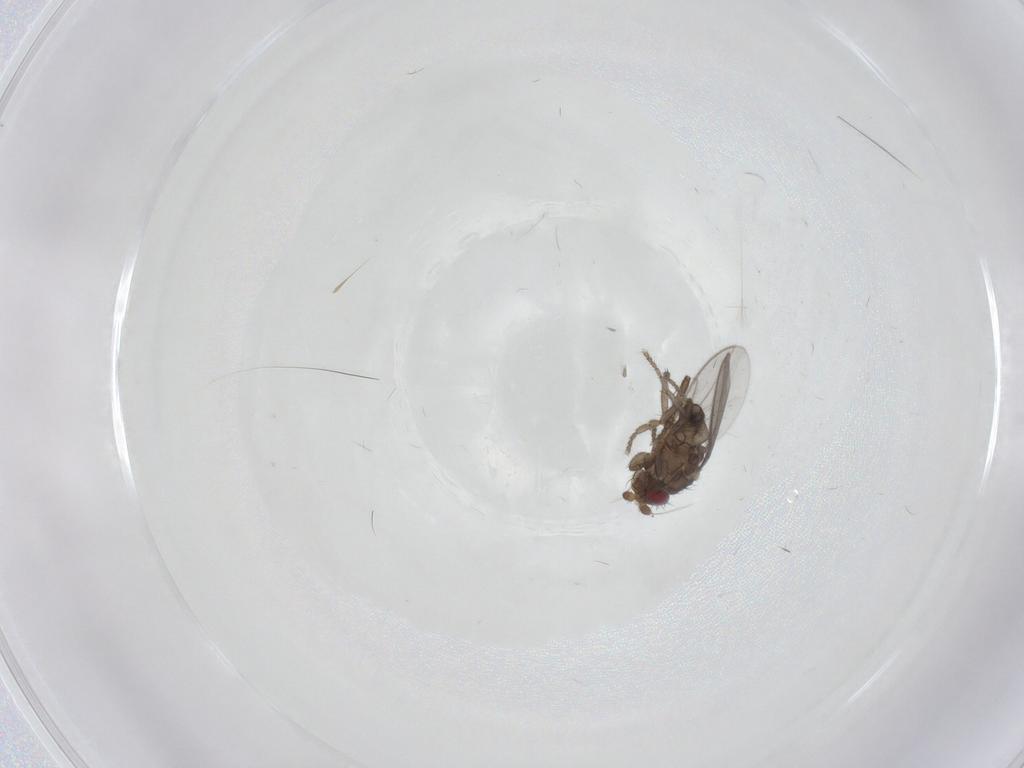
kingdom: Animalia
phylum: Arthropoda
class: Insecta
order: Diptera
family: Sphaeroceridae
